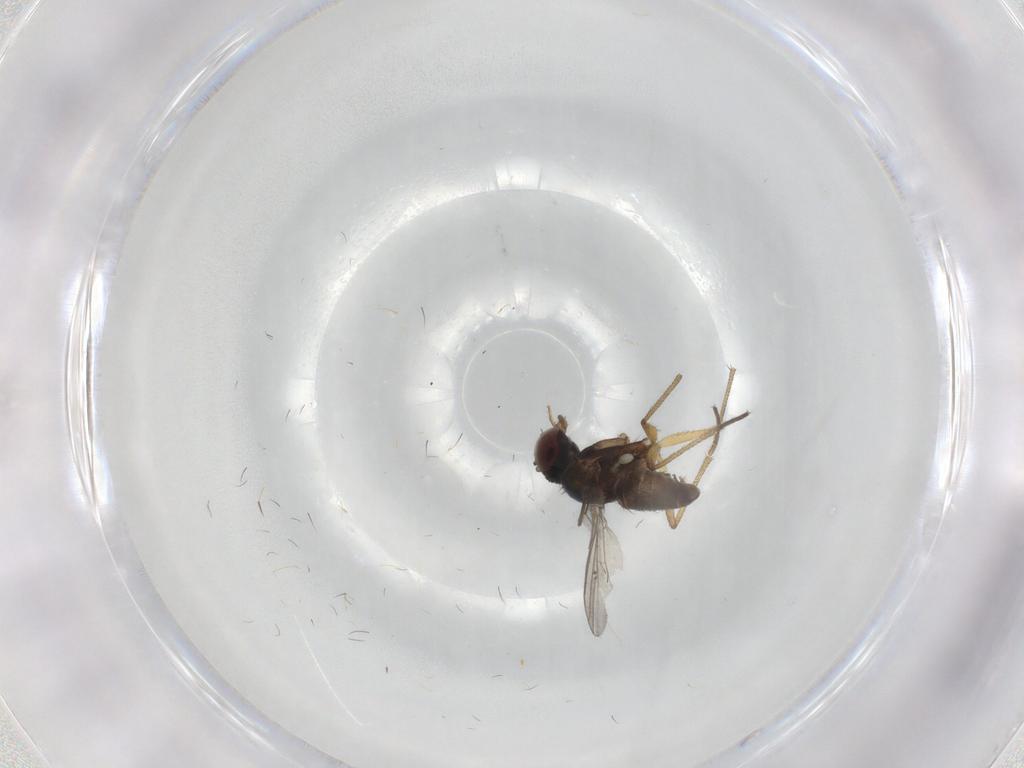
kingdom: Animalia
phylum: Arthropoda
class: Insecta
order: Diptera
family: Dolichopodidae
